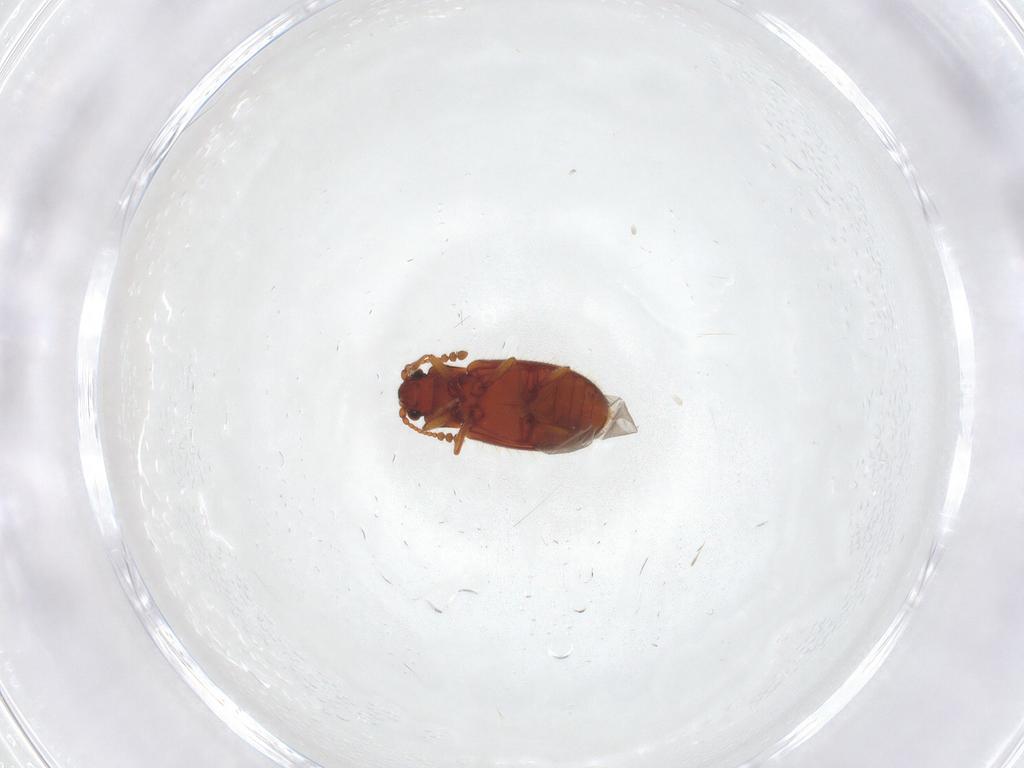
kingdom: Animalia
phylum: Arthropoda
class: Insecta
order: Coleoptera
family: Cryptophagidae
